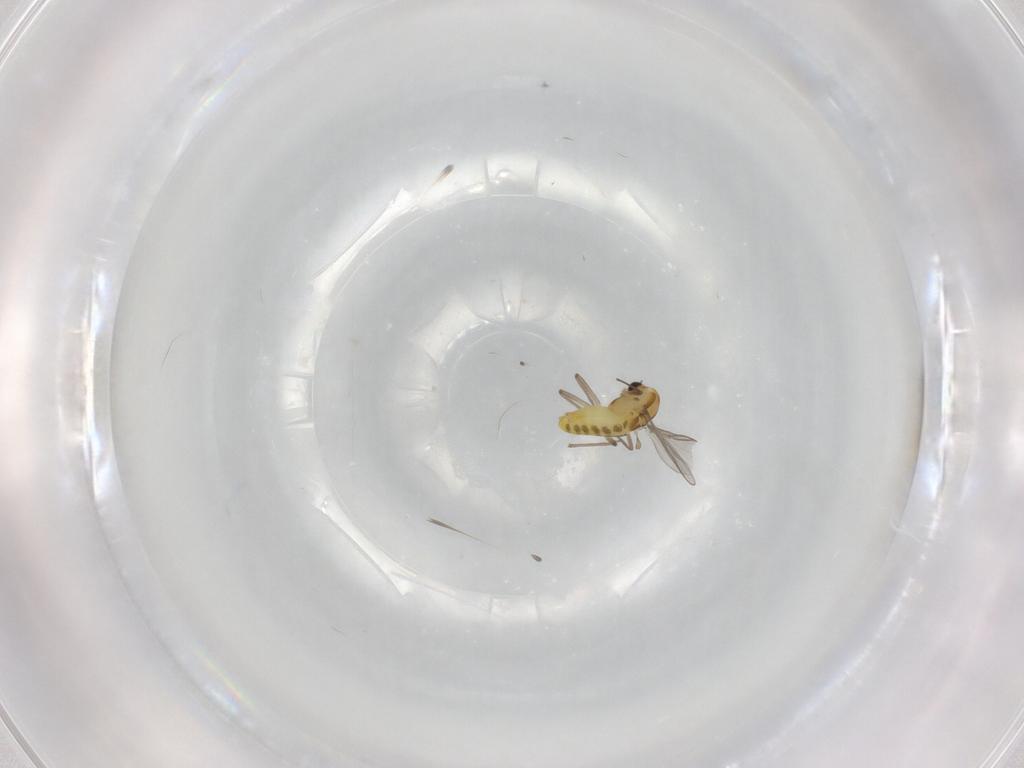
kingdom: Animalia
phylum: Arthropoda
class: Insecta
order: Diptera
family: Chironomidae
